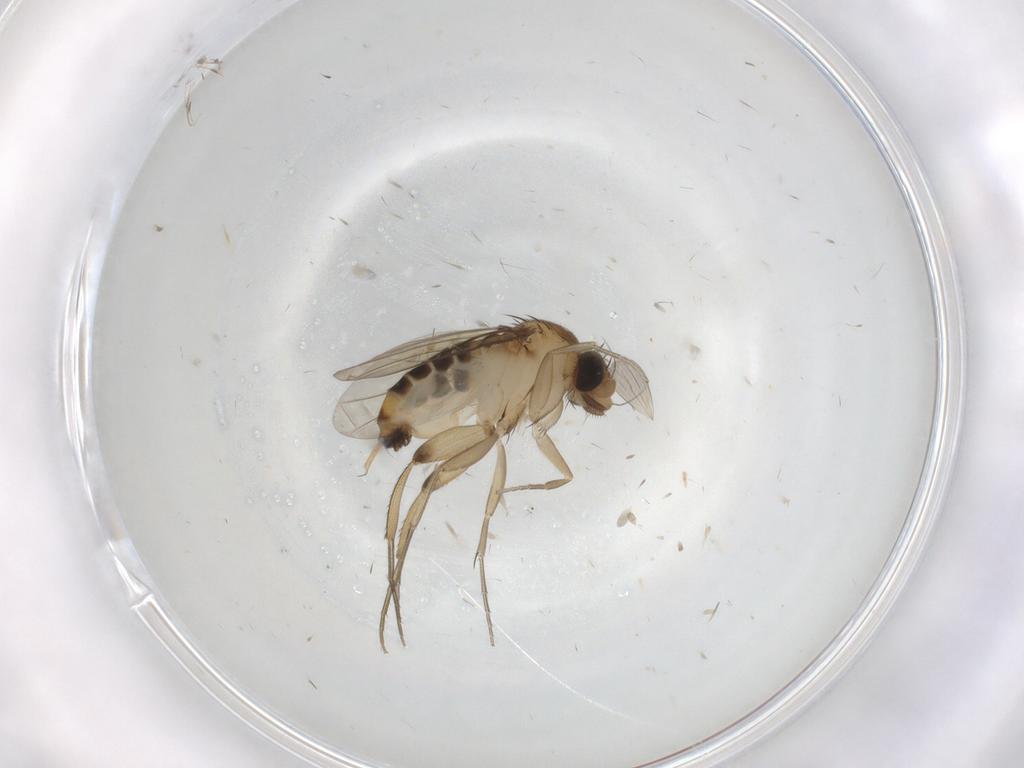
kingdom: Animalia
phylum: Arthropoda
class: Insecta
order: Diptera
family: Phoridae
